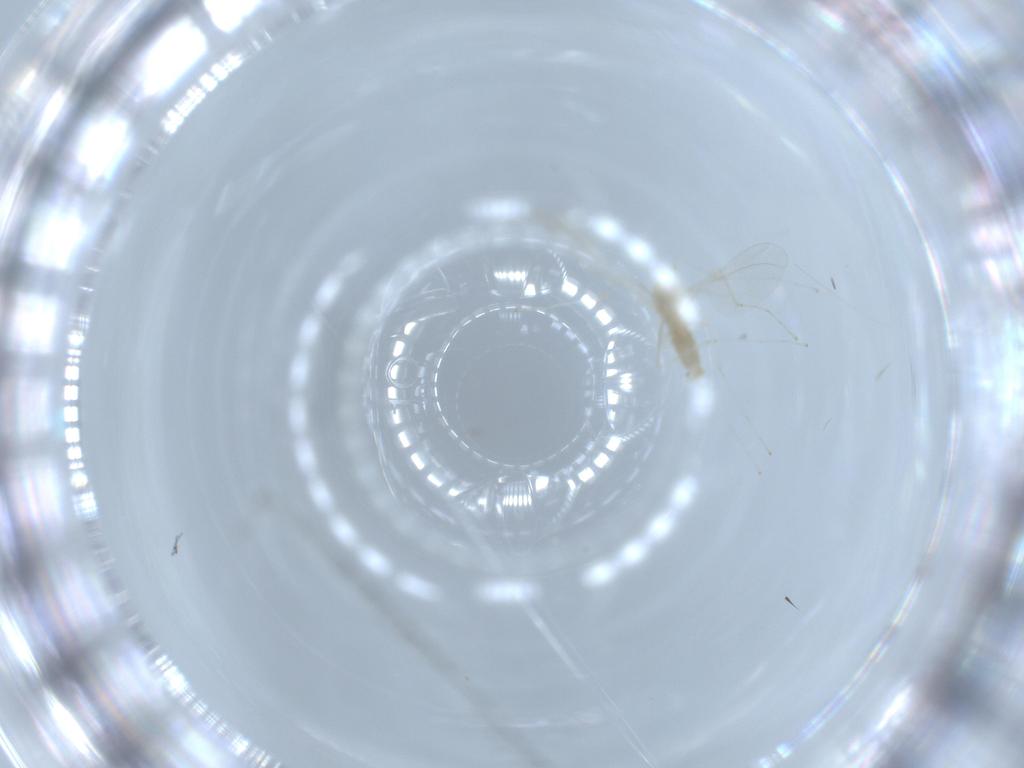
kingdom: Animalia
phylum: Arthropoda
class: Insecta
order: Diptera
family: Cecidomyiidae
